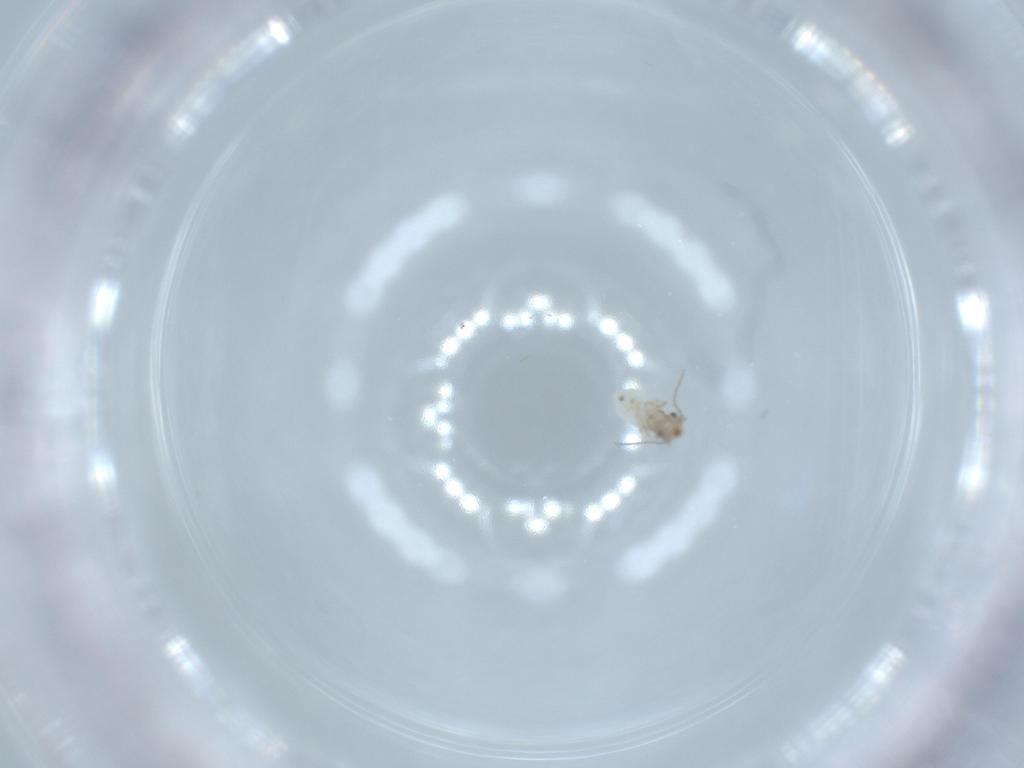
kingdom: Animalia
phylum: Arthropoda
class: Insecta
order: Psocodea
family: Lepidopsocidae
